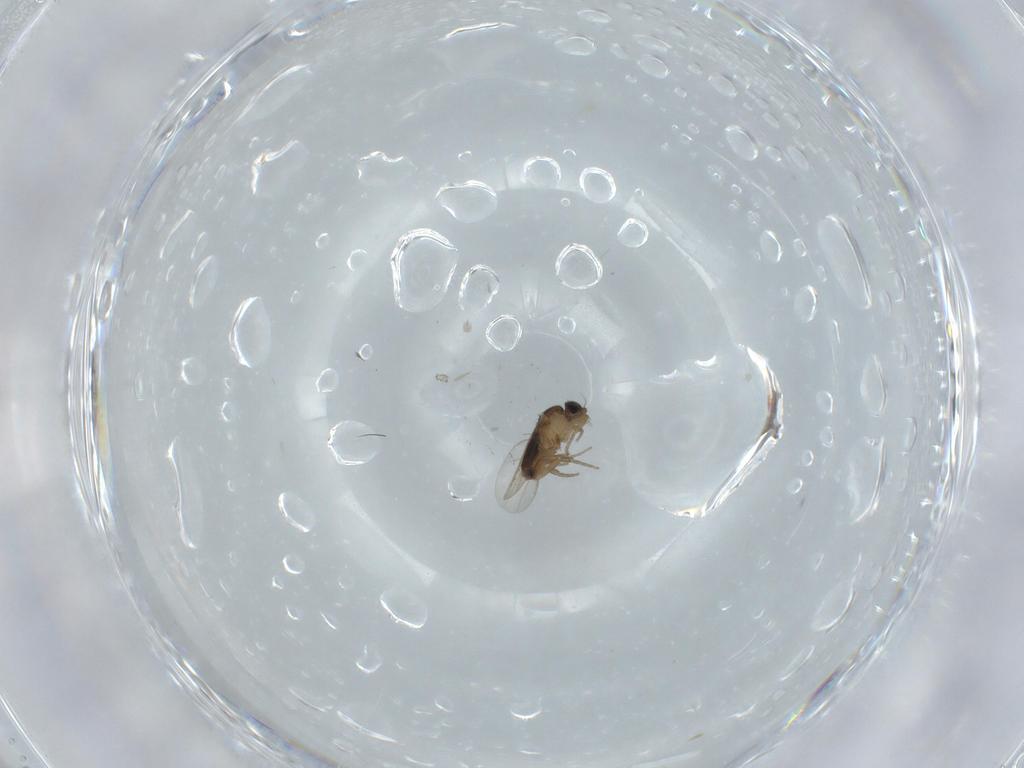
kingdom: Animalia
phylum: Arthropoda
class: Insecta
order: Diptera
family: Phoridae
